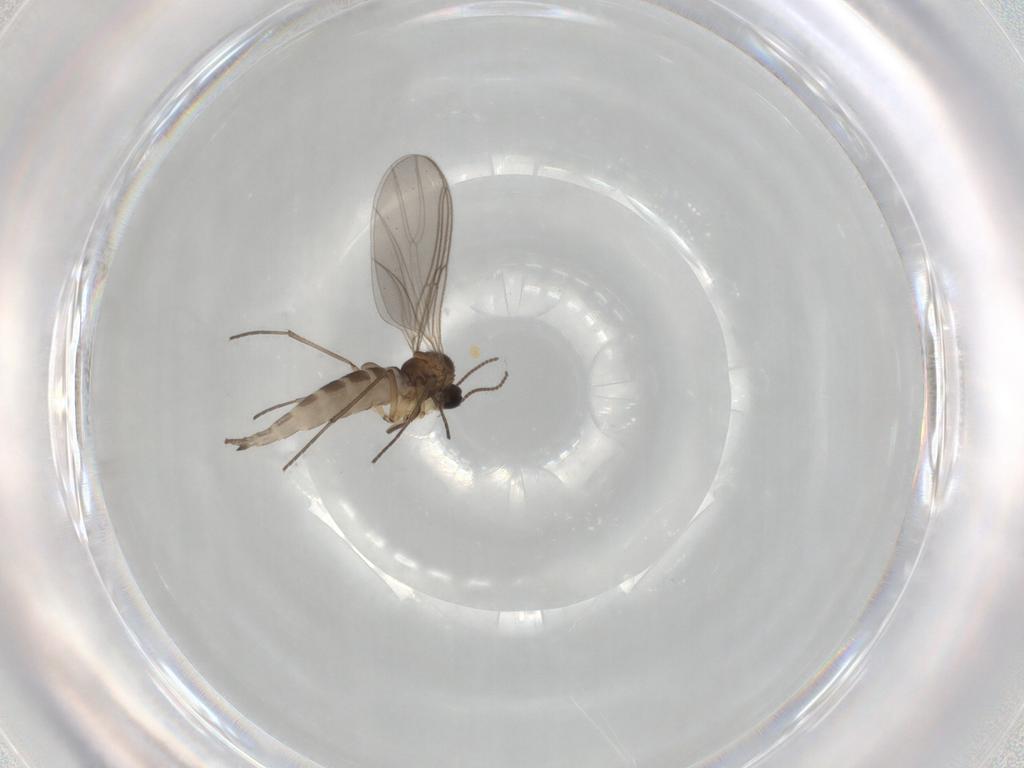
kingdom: Animalia
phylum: Arthropoda
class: Insecta
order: Diptera
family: Sciaridae
